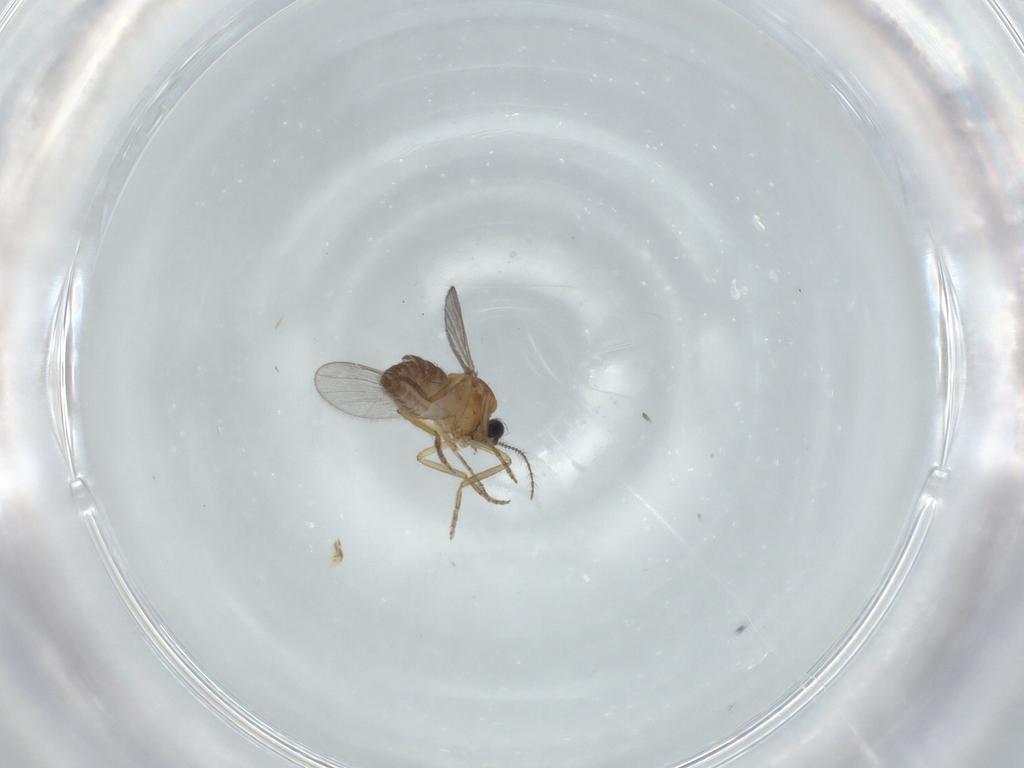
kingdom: Animalia
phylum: Arthropoda
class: Insecta
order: Diptera
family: Ceratopogonidae
